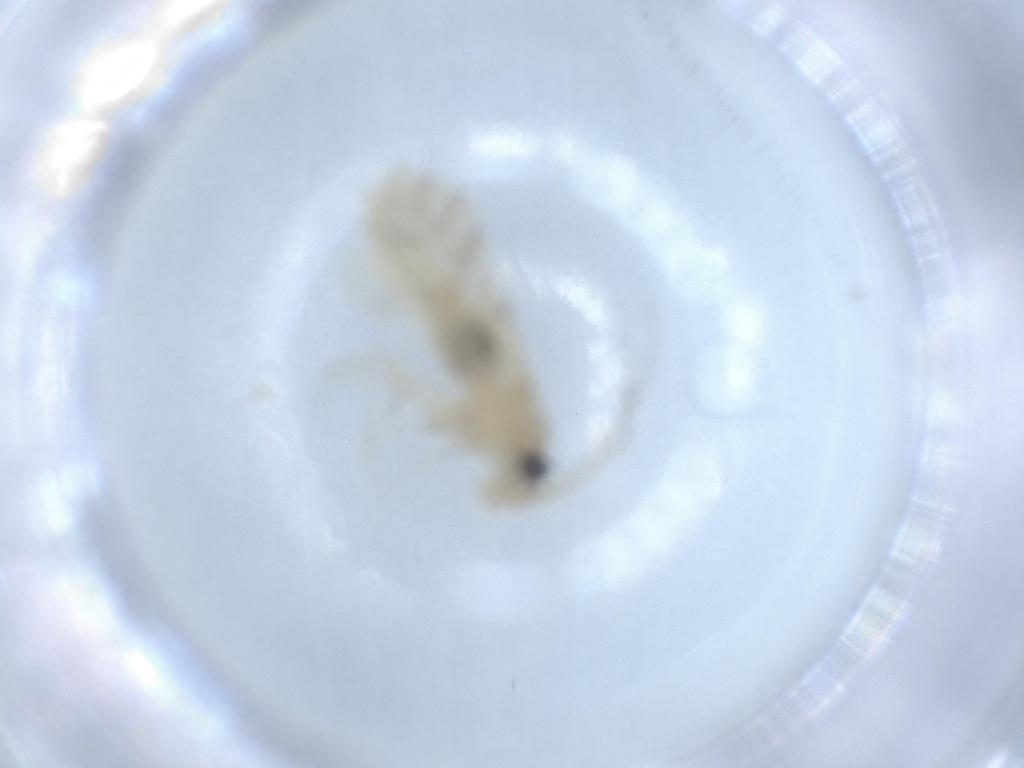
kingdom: Animalia
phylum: Arthropoda
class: Insecta
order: Psocodea
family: Caeciliusidae
